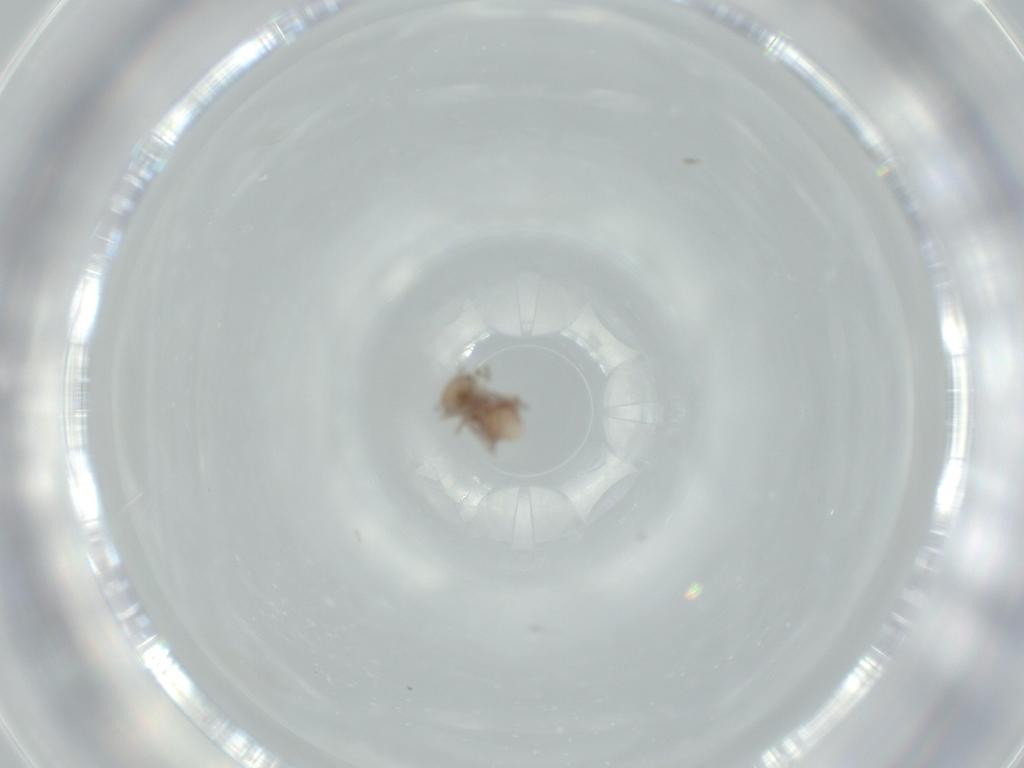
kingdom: Animalia
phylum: Arthropoda
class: Insecta
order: Psocodea
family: Ectopsocidae
